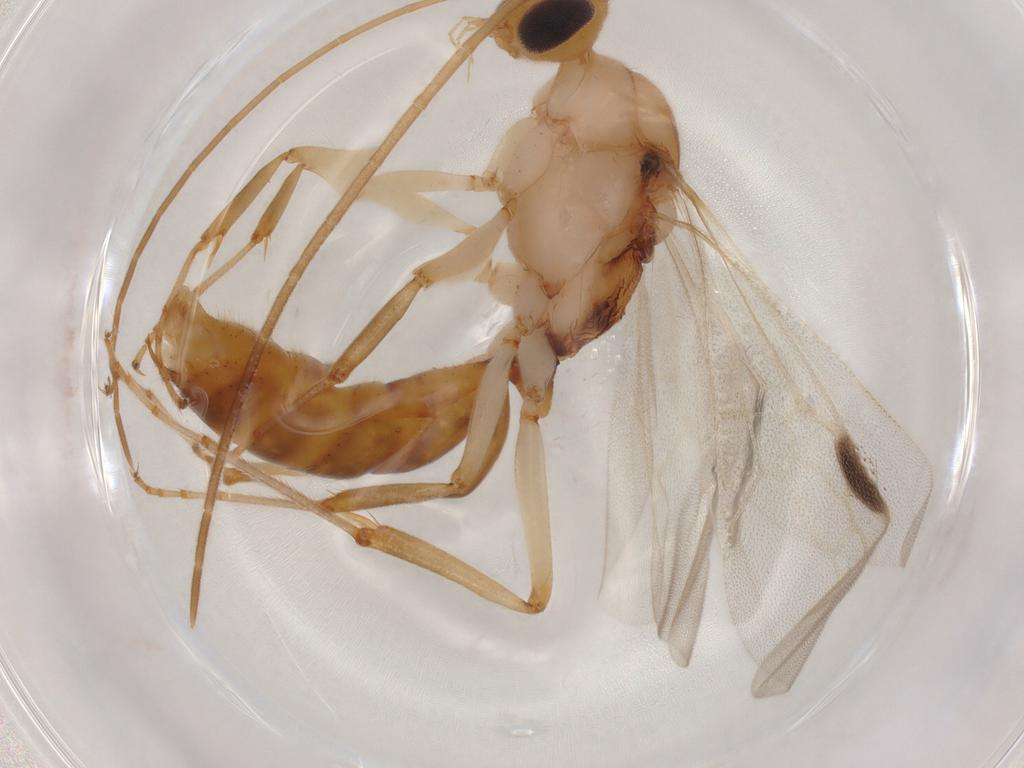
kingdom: Animalia
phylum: Arthropoda
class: Insecta
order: Hymenoptera
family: Formicidae
